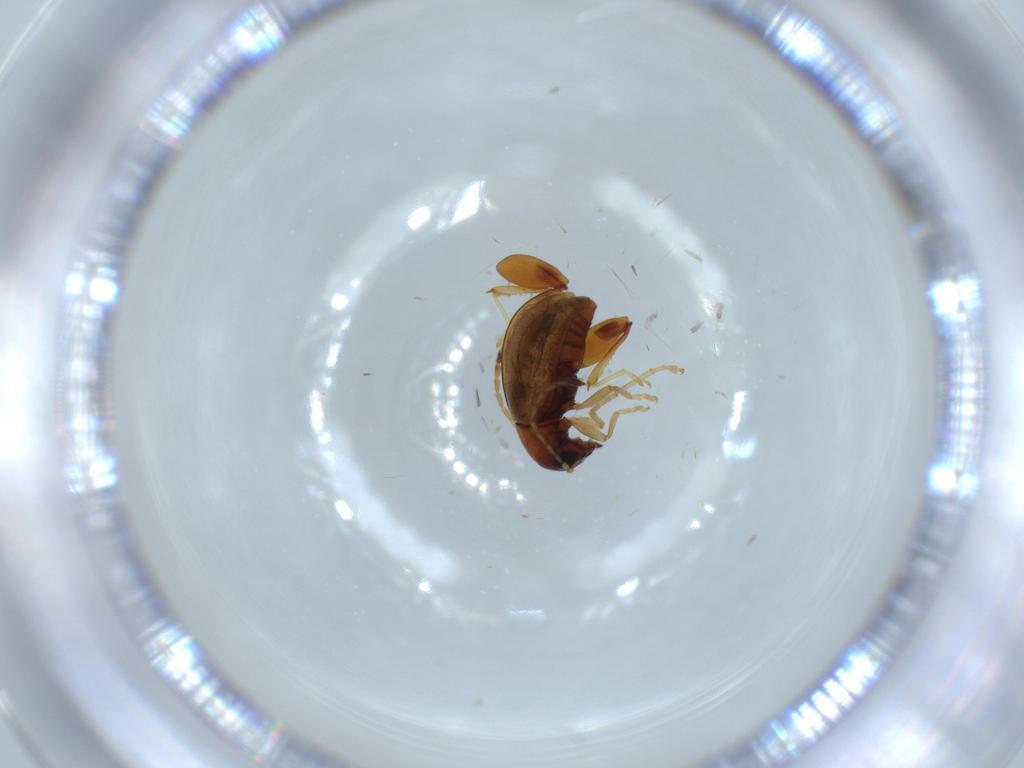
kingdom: Animalia
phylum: Arthropoda
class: Insecta
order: Coleoptera
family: Chrysomelidae
